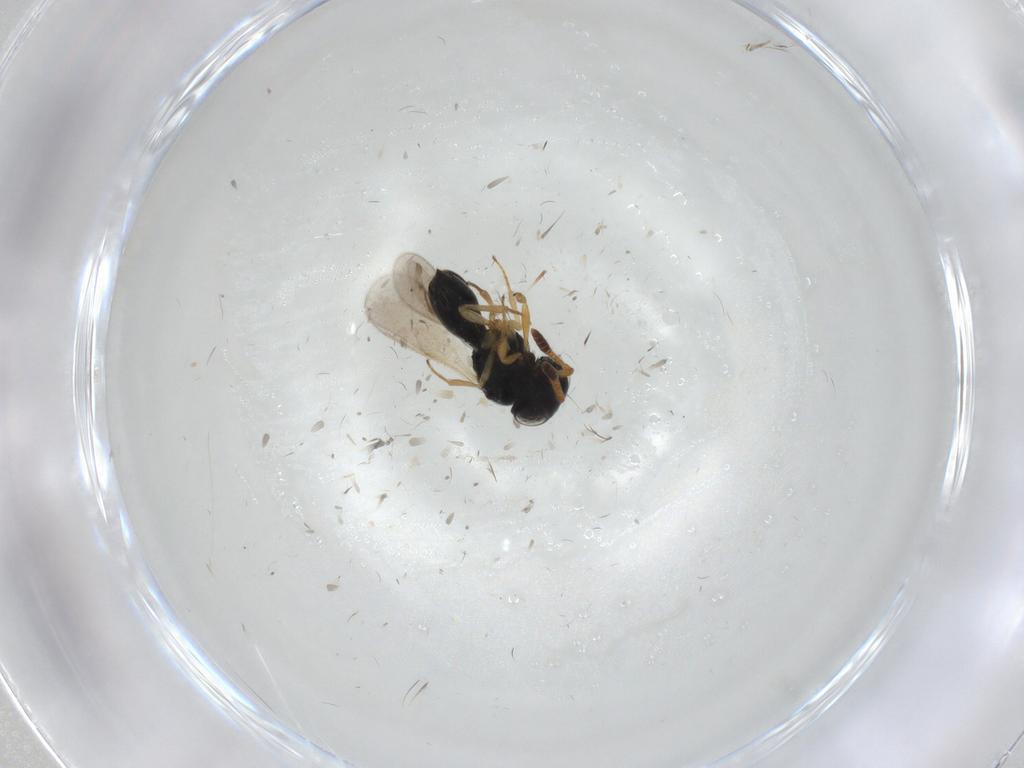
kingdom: Animalia
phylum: Arthropoda
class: Insecta
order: Hymenoptera
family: Scelionidae
